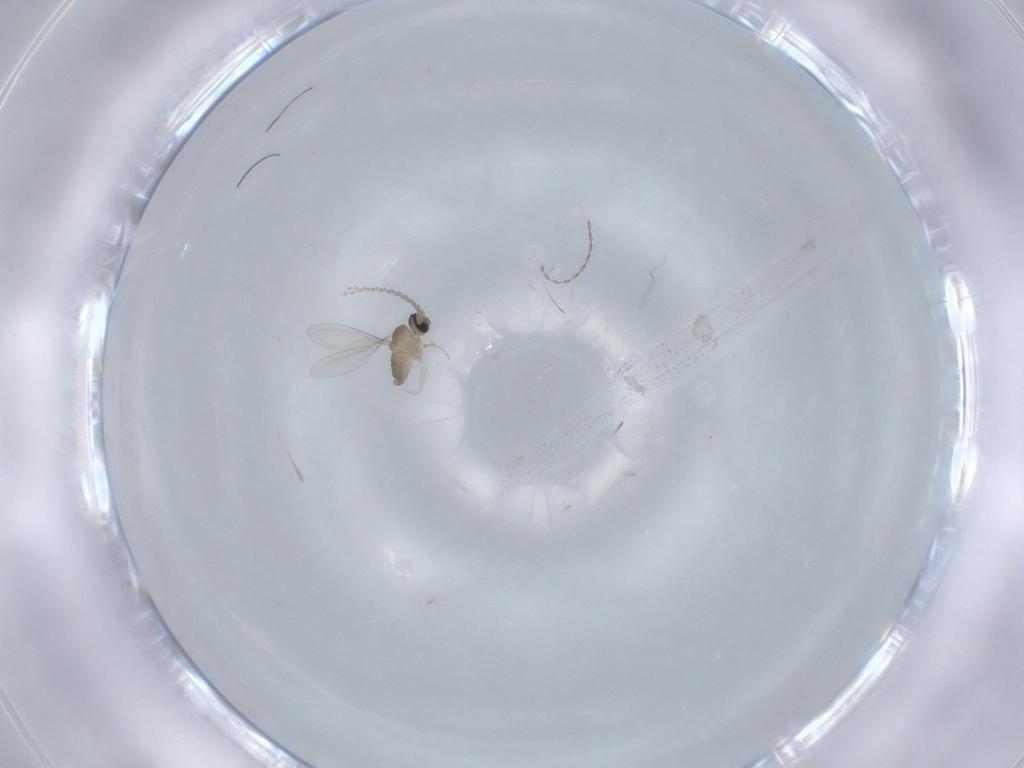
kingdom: Animalia
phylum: Arthropoda
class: Insecta
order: Diptera
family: Cecidomyiidae
